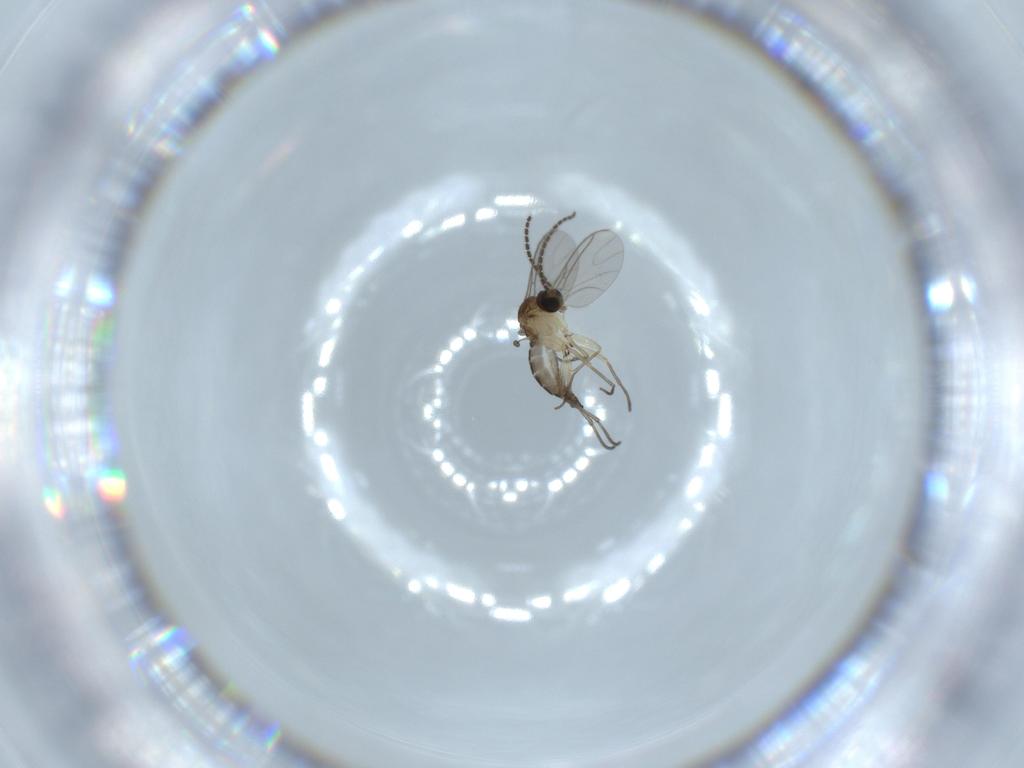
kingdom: Animalia
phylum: Arthropoda
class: Insecta
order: Diptera
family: Sciaridae
